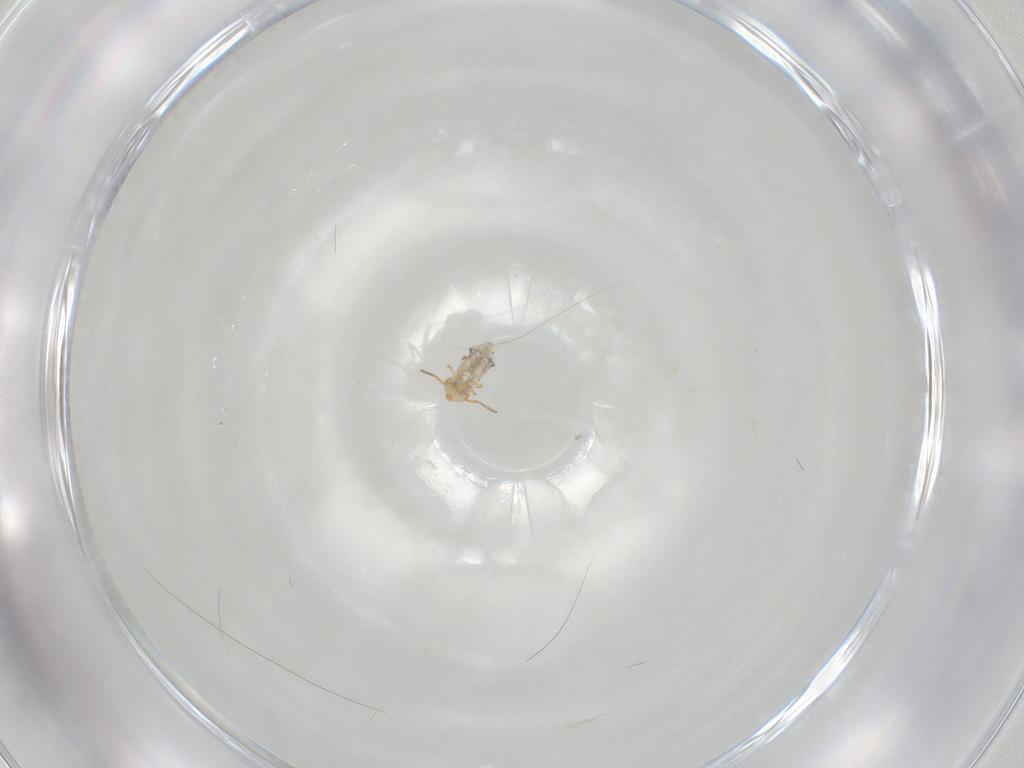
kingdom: Animalia
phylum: Arthropoda
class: Collembola
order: Symphypleona
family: Bourletiellidae
